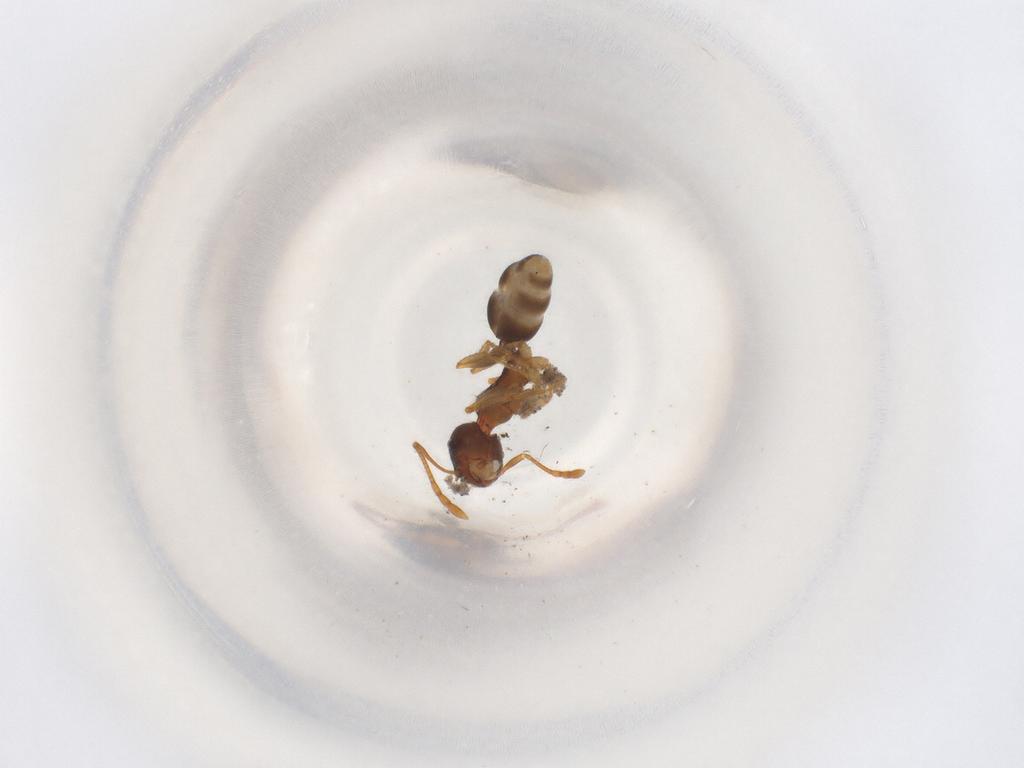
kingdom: Animalia
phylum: Arthropoda
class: Insecta
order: Hymenoptera
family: Formicidae
